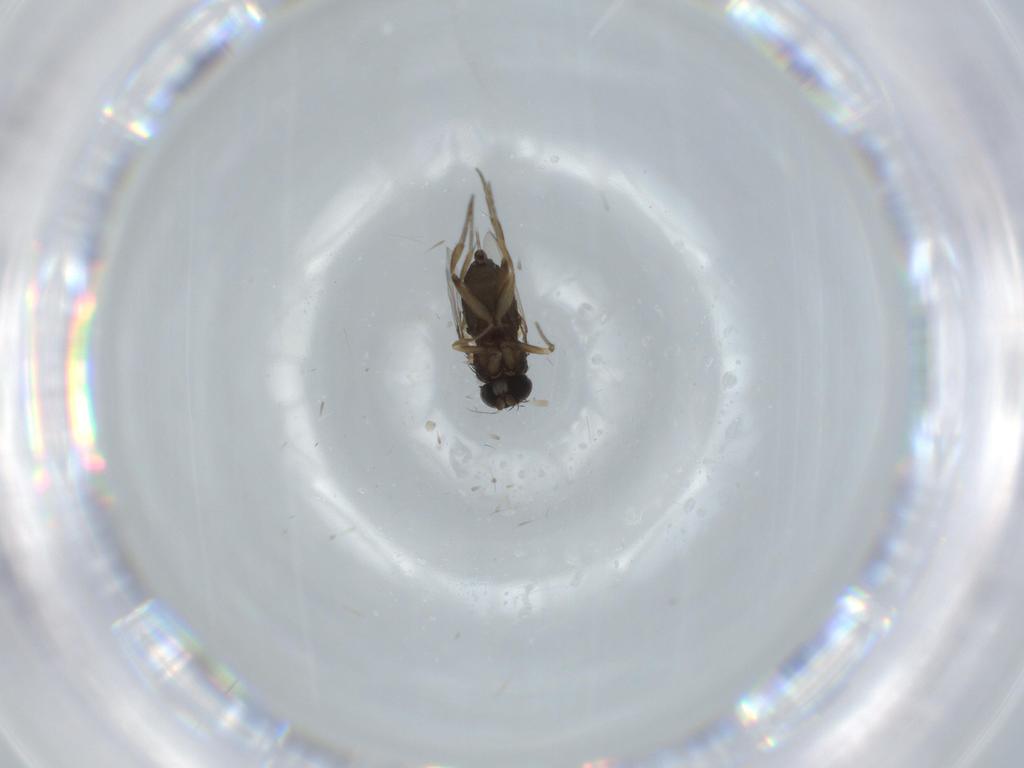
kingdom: Animalia
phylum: Arthropoda
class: Insecta
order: Diptera
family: Phoridae
